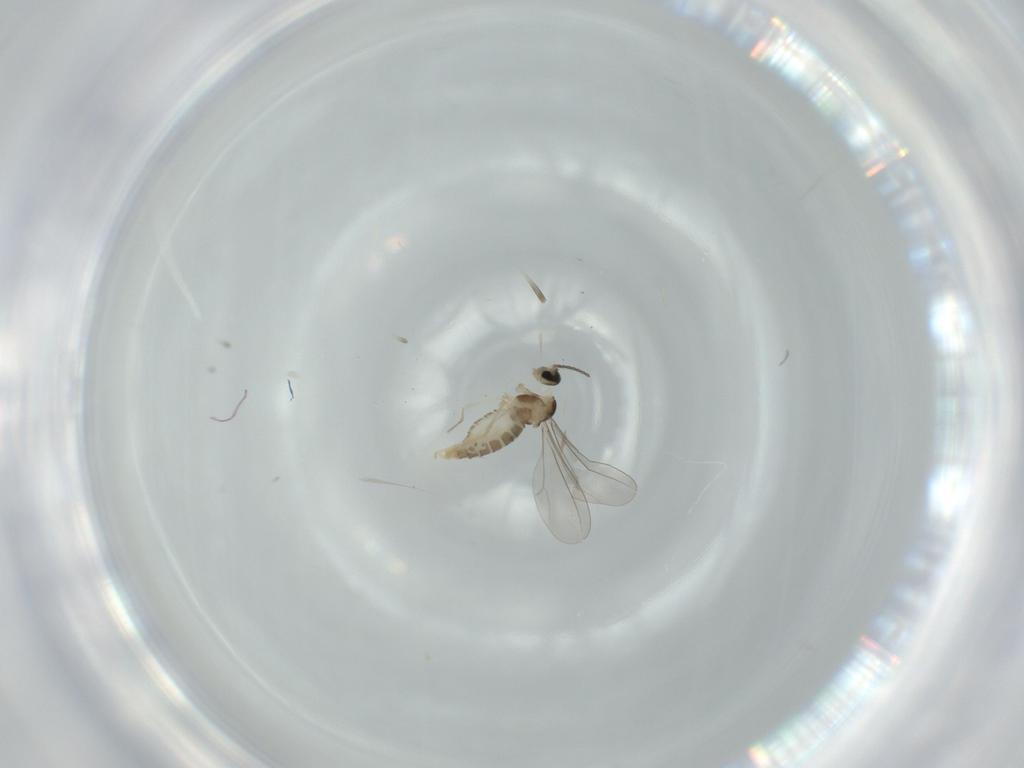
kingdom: Animalia
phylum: Arthropoda
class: Insecta
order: Diptera
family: Cecidomyiidae
